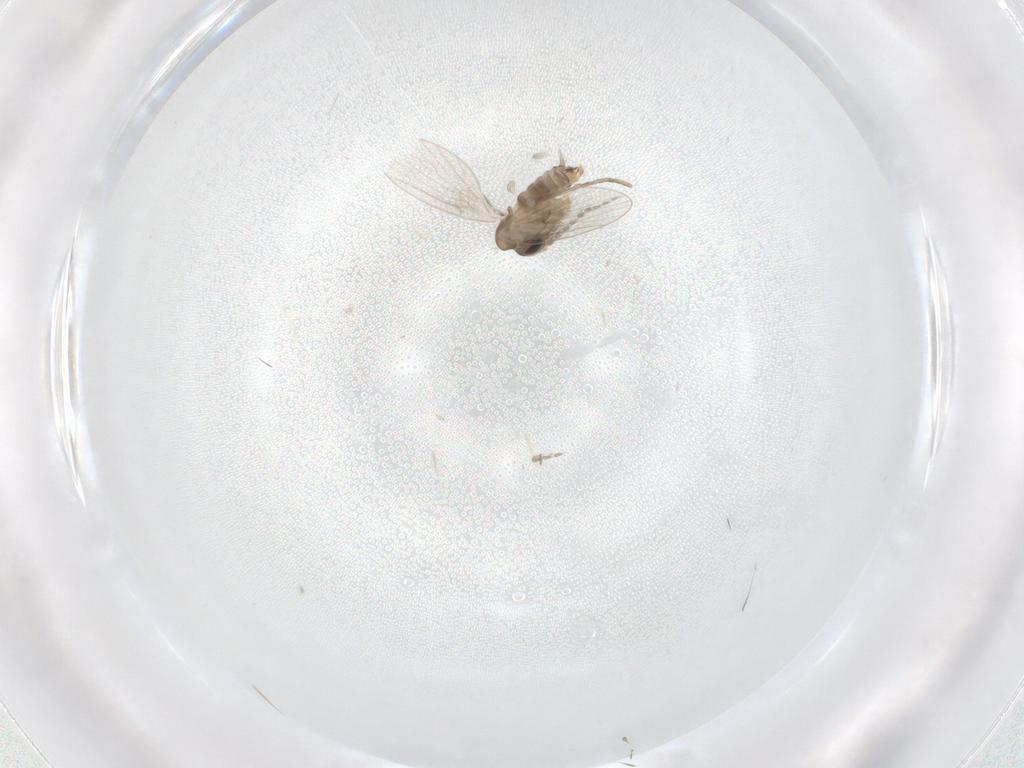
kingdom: Animalia
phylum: Arthropoda
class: Insecta
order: Diptera
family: Psychodidae
